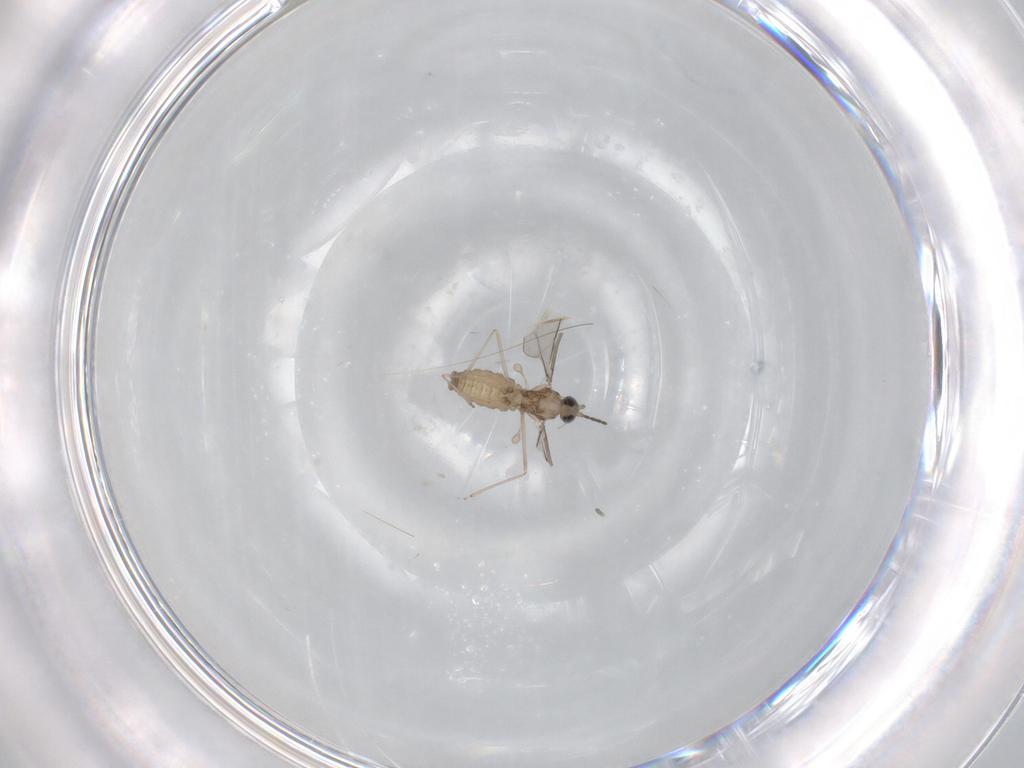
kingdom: Animalia
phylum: Arthropoda
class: Insecta
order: Diptera
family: Cecidomyiidae
